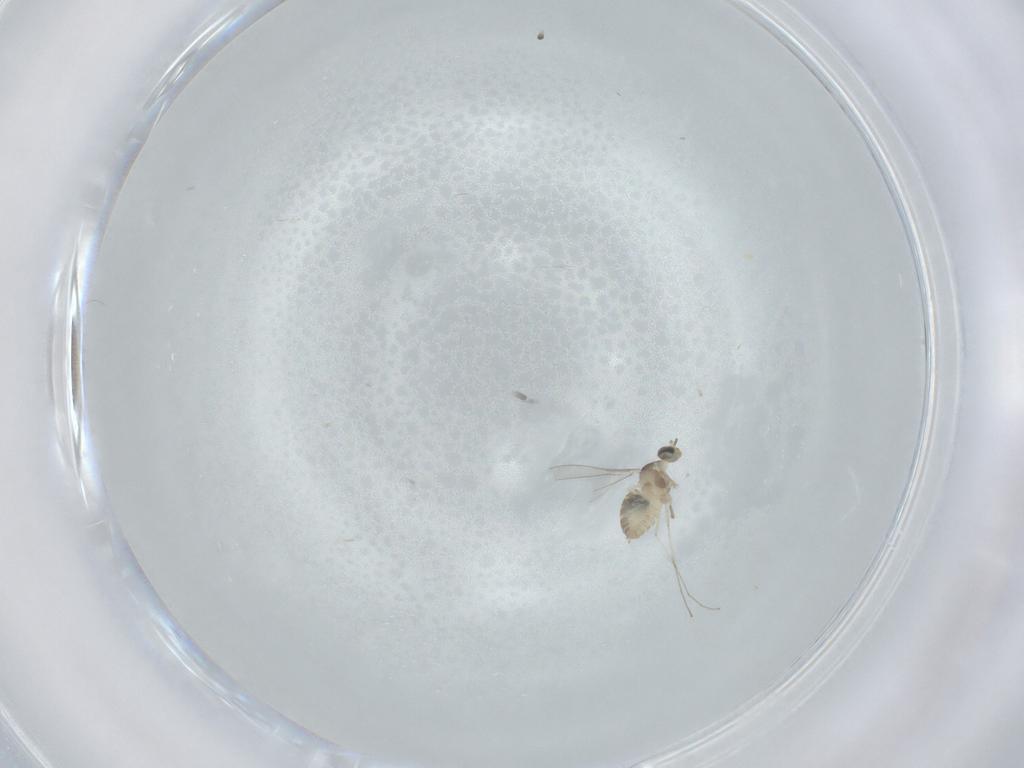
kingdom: Animalia
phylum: Arthropoda
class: Insecta
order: Diptera
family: Cecidomyiidae
